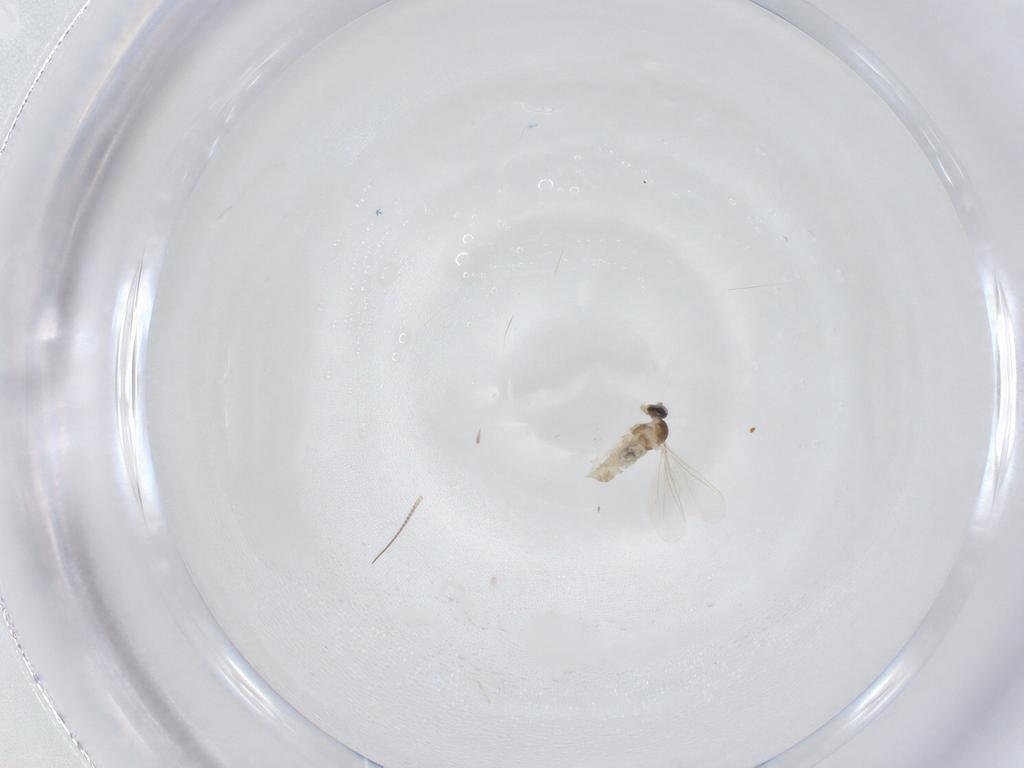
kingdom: Animalia
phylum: Arthropoda
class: Insecta
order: Diptera
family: Cecidomyiidae
